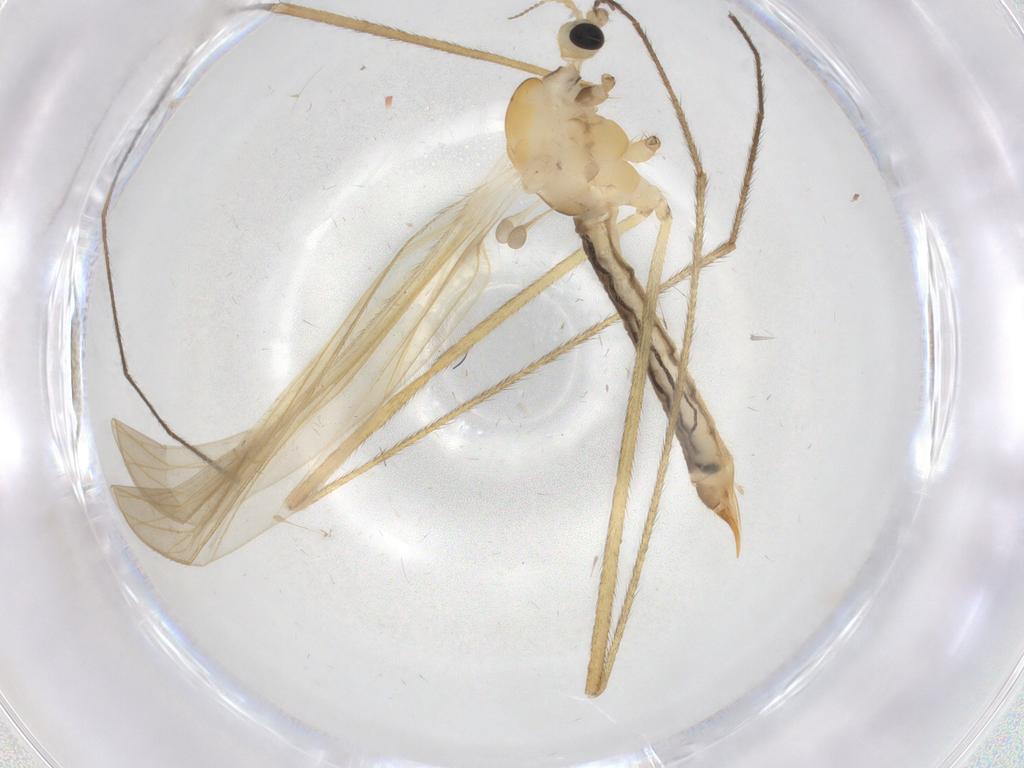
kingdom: Animalia
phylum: Arthropoda
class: Insecta
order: Diptera
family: Limoniidae
